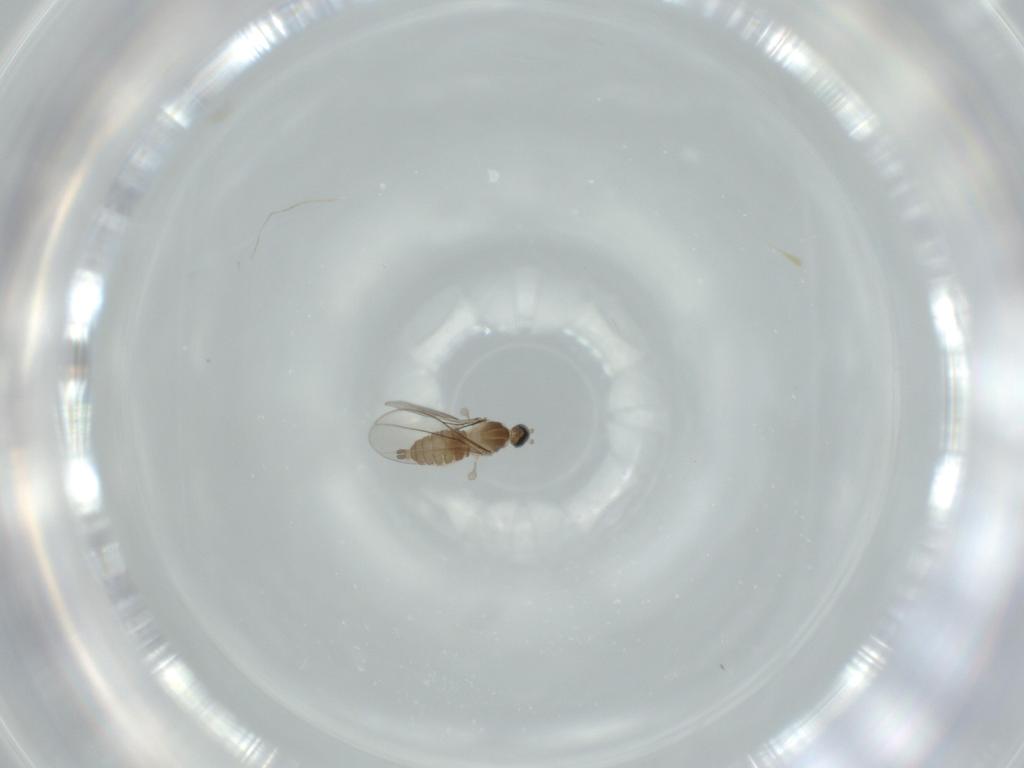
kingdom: Animalia
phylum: Arthropoda
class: Insecta
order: Diptera
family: Cecidomyiidae
